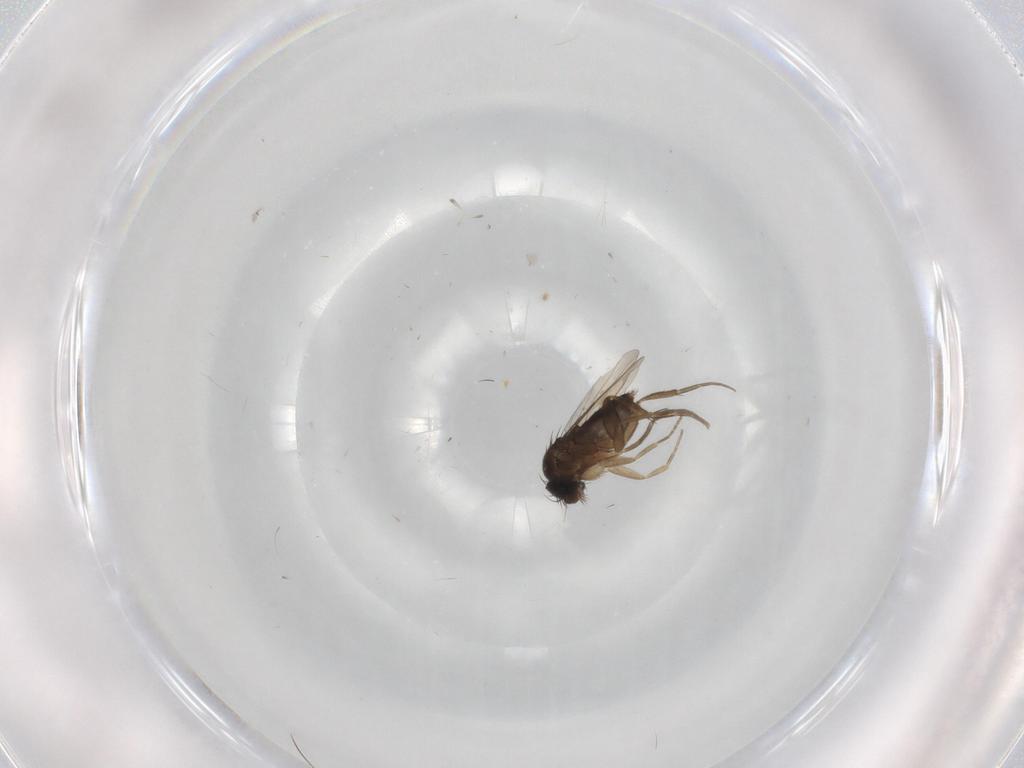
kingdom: Animalia
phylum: Arthropoda
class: Insecta
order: Diptera
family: Phoridae
